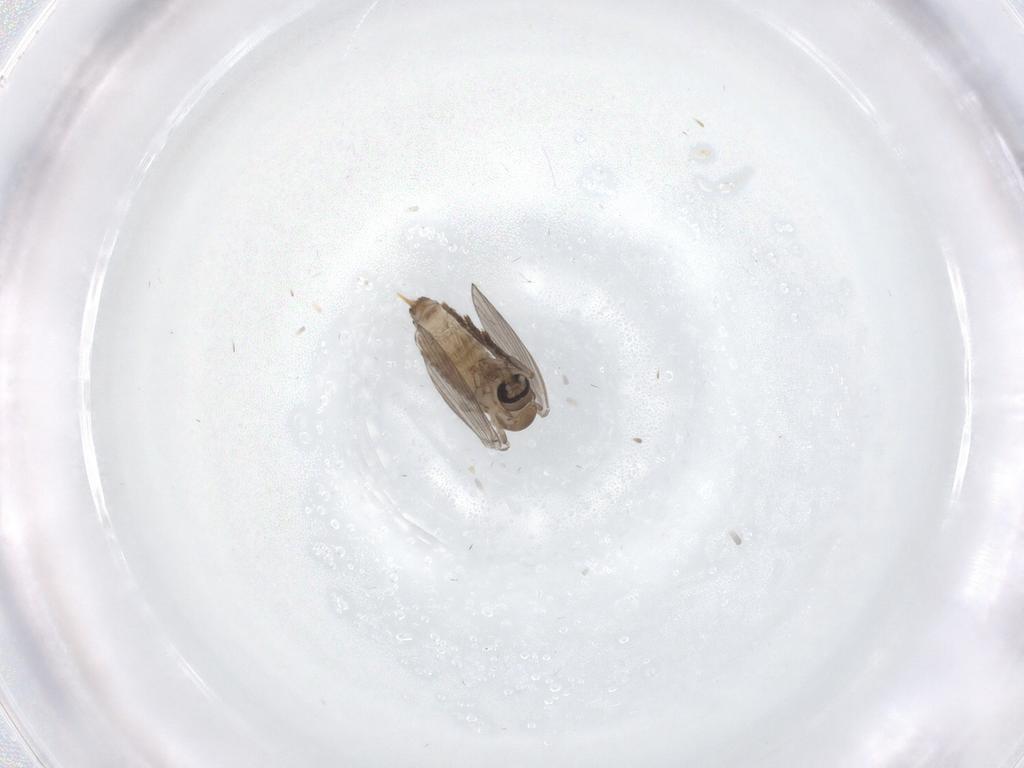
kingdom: Animalia
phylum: Arthropoda
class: Insecta
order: Diptera
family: Psychodidae
